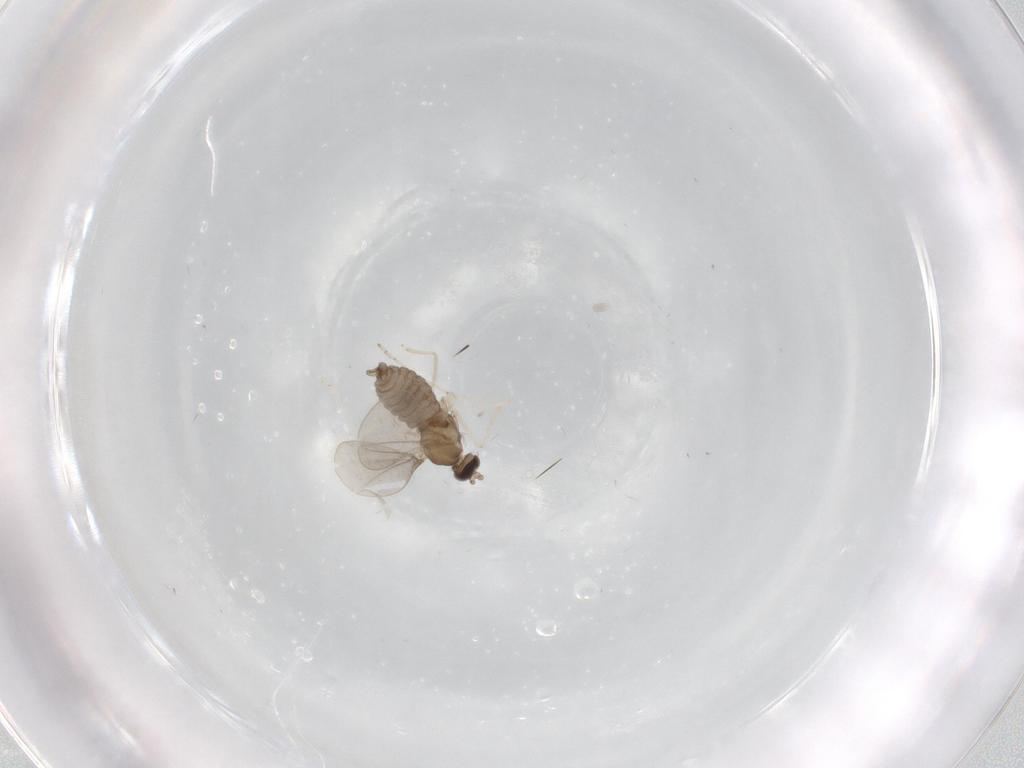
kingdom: Animalia
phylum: Arthropoda
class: Insecta
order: Diptera
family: Cecidomyiidae
